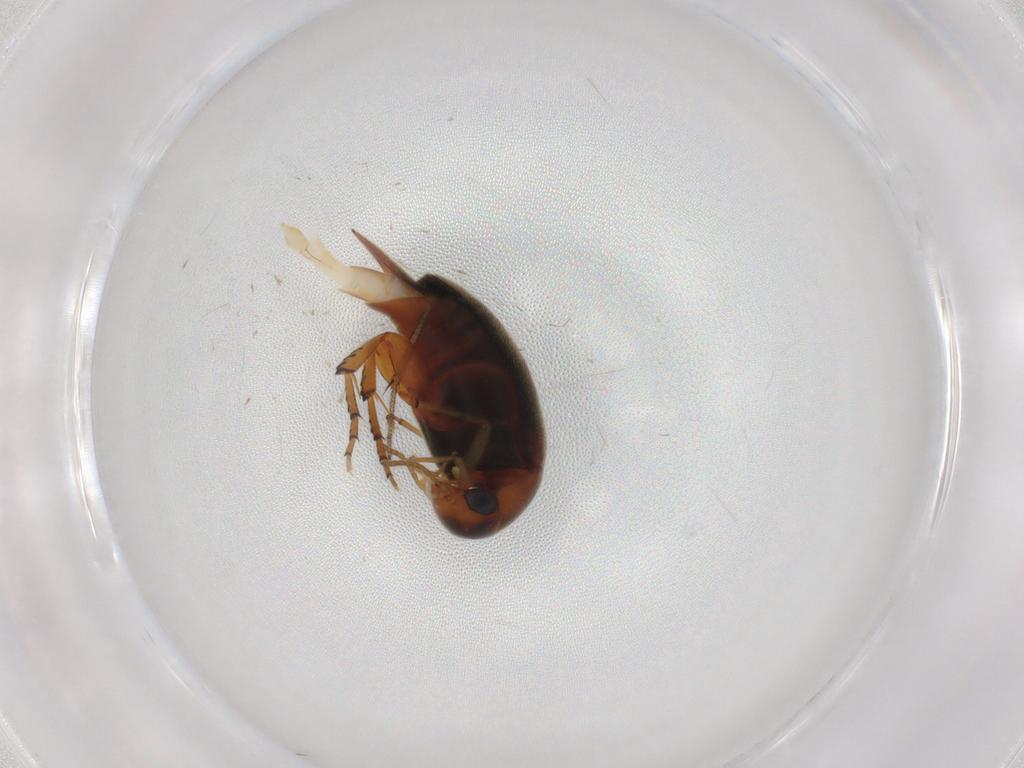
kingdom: Animalia
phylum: Arthropoda
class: Insecta
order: Coleoptera
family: Mordellidae
